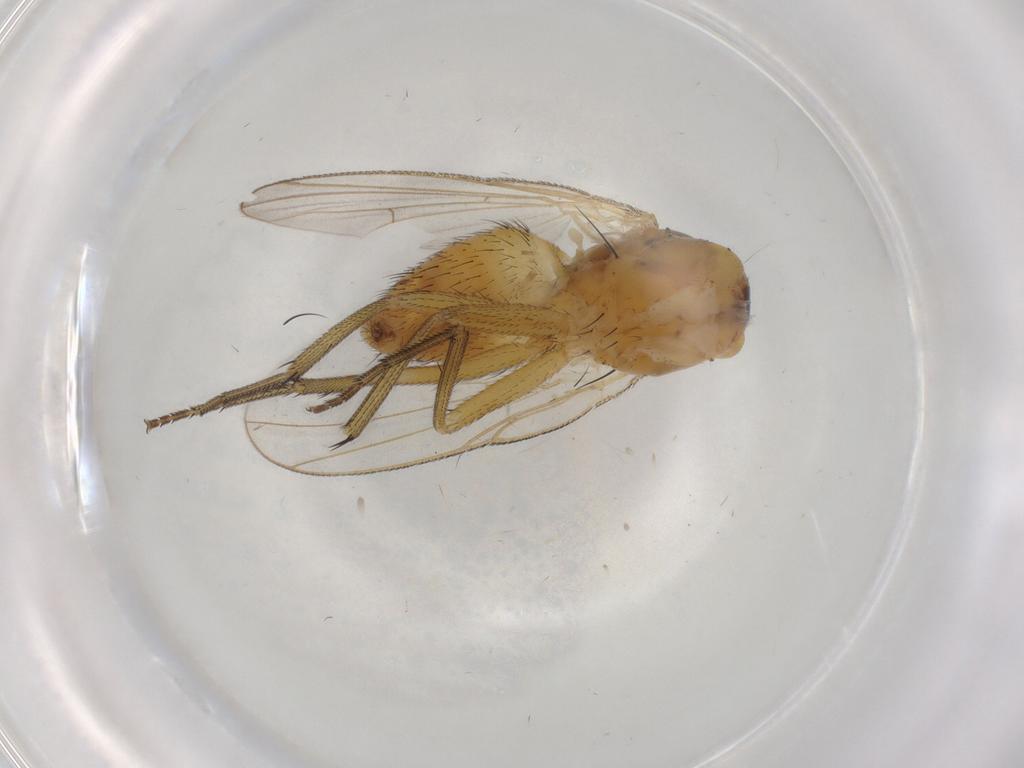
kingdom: Animalia
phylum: Arthropoda
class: Insecta
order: Diptera
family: Muscidae
